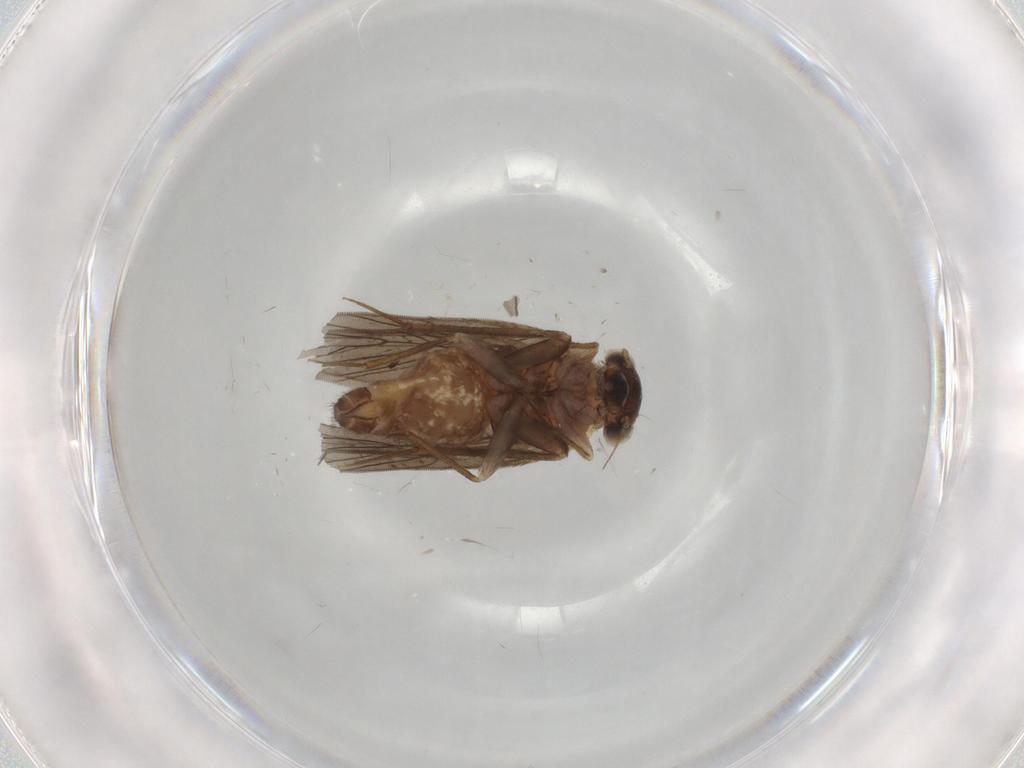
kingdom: Animalia
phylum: Arthropoda
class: Insecta
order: Psocodea
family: Lepidopsocidae
